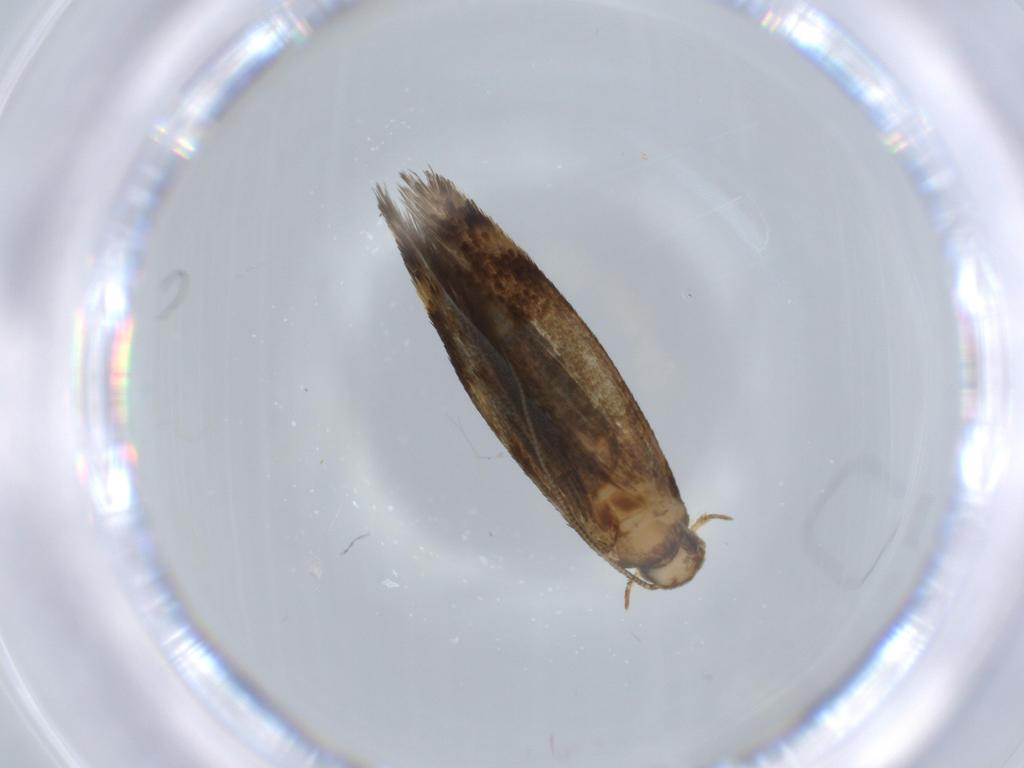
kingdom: Animalia
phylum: Arthropoda
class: Insecta
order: Lepidoptera
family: Tineidae
